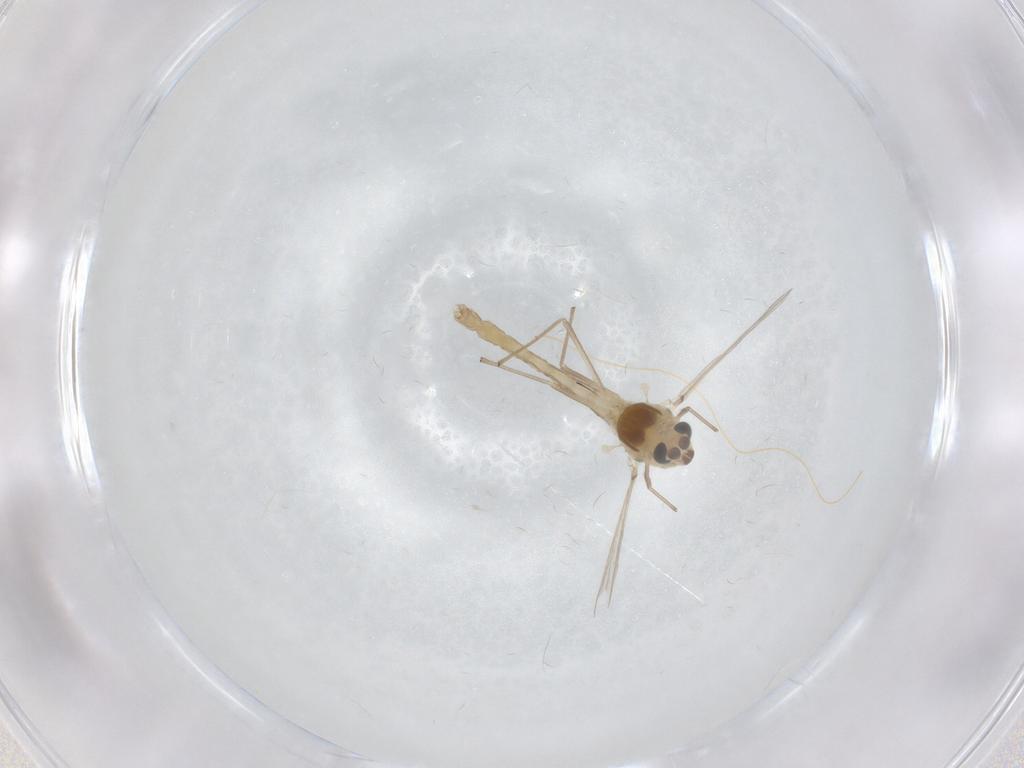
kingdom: Animalia
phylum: Arthropoda
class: Insecta
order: Diptera
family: Chironomidae
